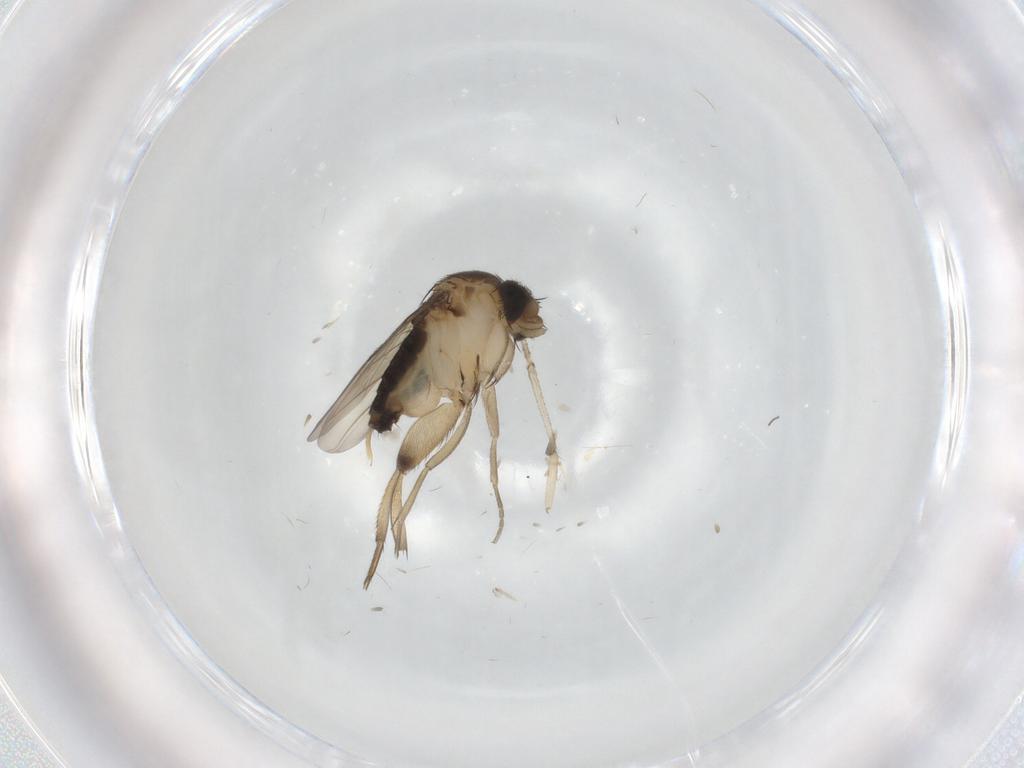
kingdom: Animalia
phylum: Arthropoda
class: Insecta
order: Diptera
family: Phoridae
